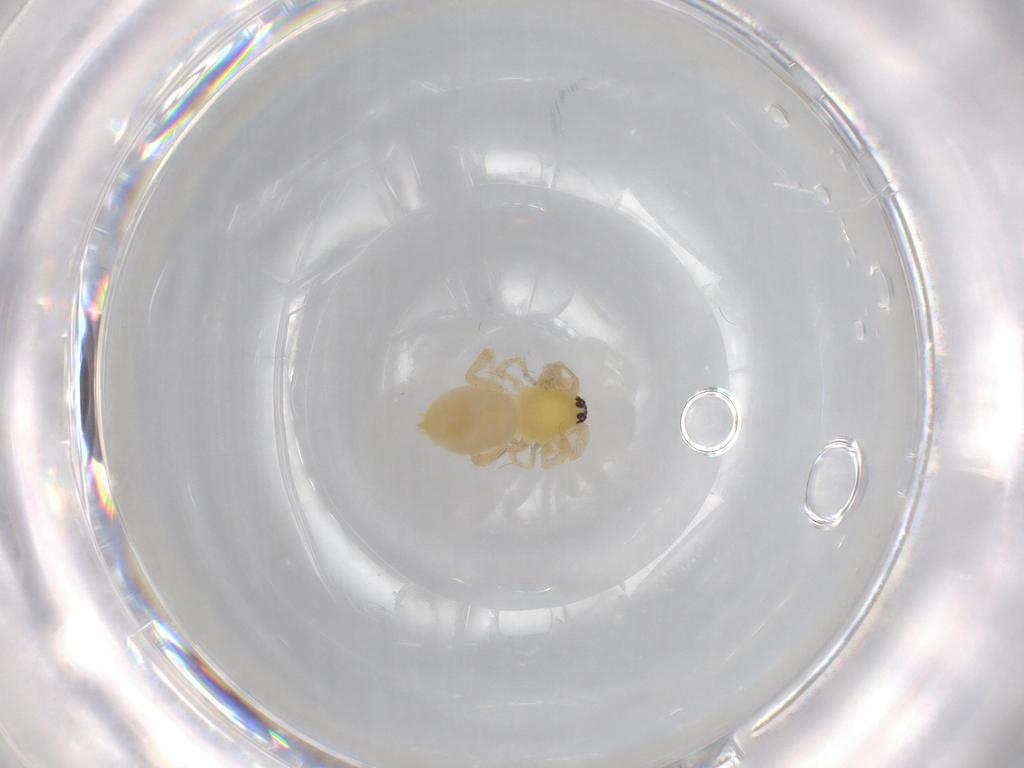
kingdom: Animalia
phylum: Arthropoda
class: Arachnida
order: Araneae
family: Anyphaenidae
